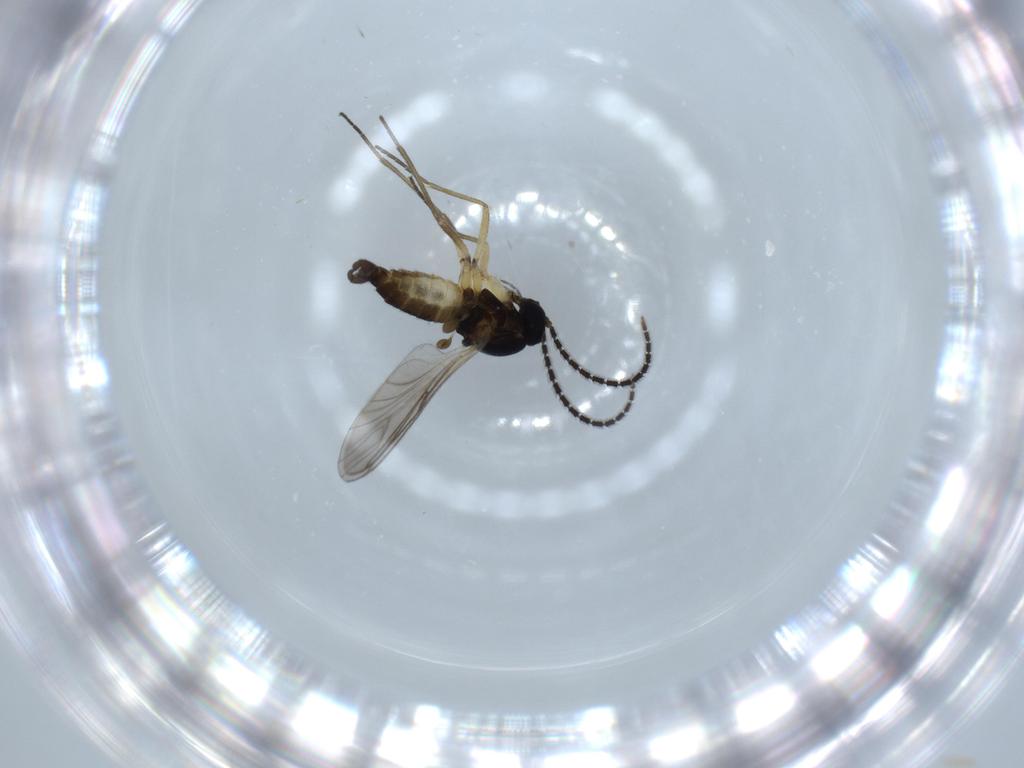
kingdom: Animalia
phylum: Arthropoda
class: Insecta
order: Diptera
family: Sciaridae
